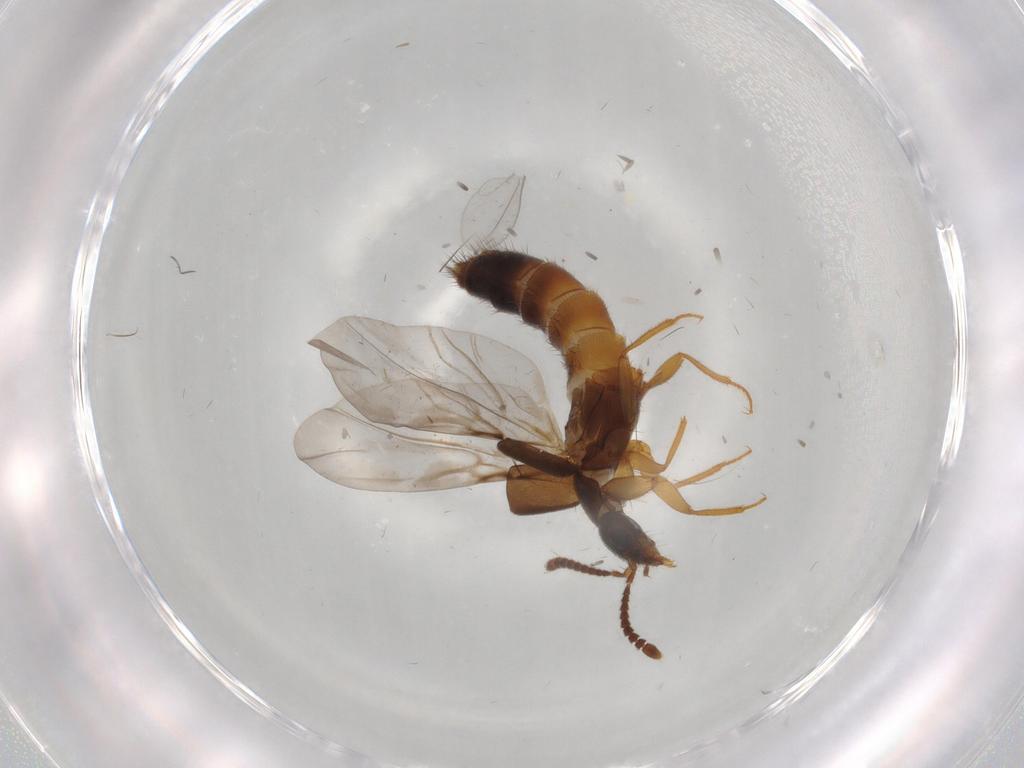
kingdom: Animalia
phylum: Arthropoda
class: Insecta
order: Coleoptera
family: Staphylinidae
